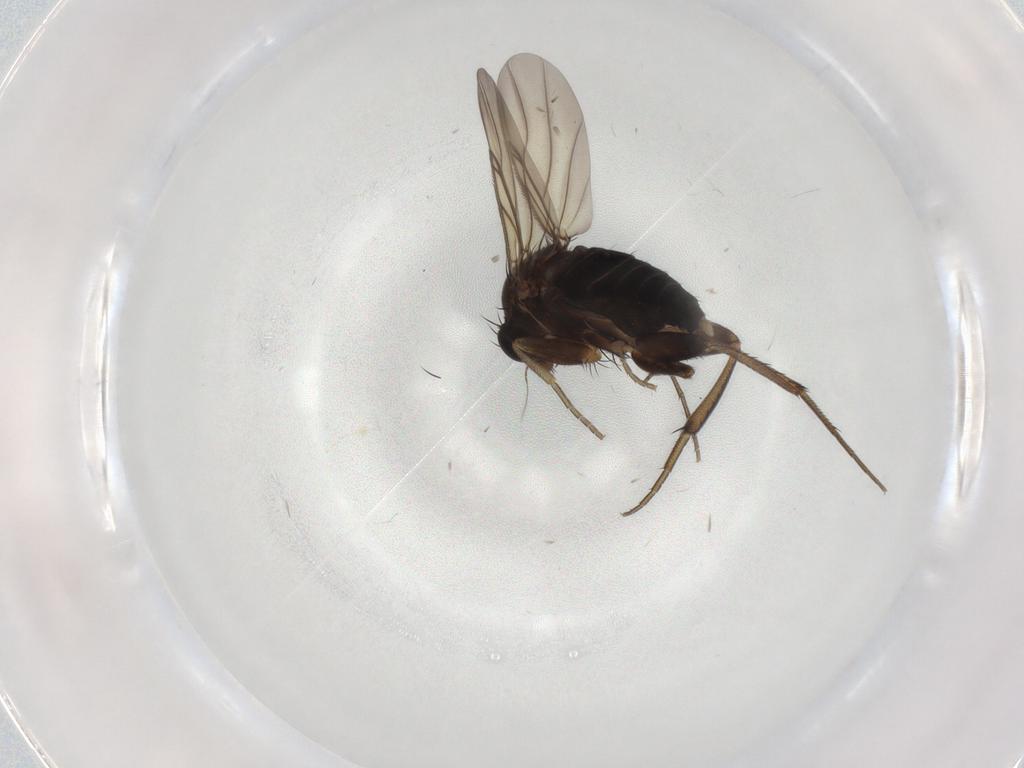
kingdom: Animalia
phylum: Arthropoda
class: Insecta
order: Diptera
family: Phoridae
